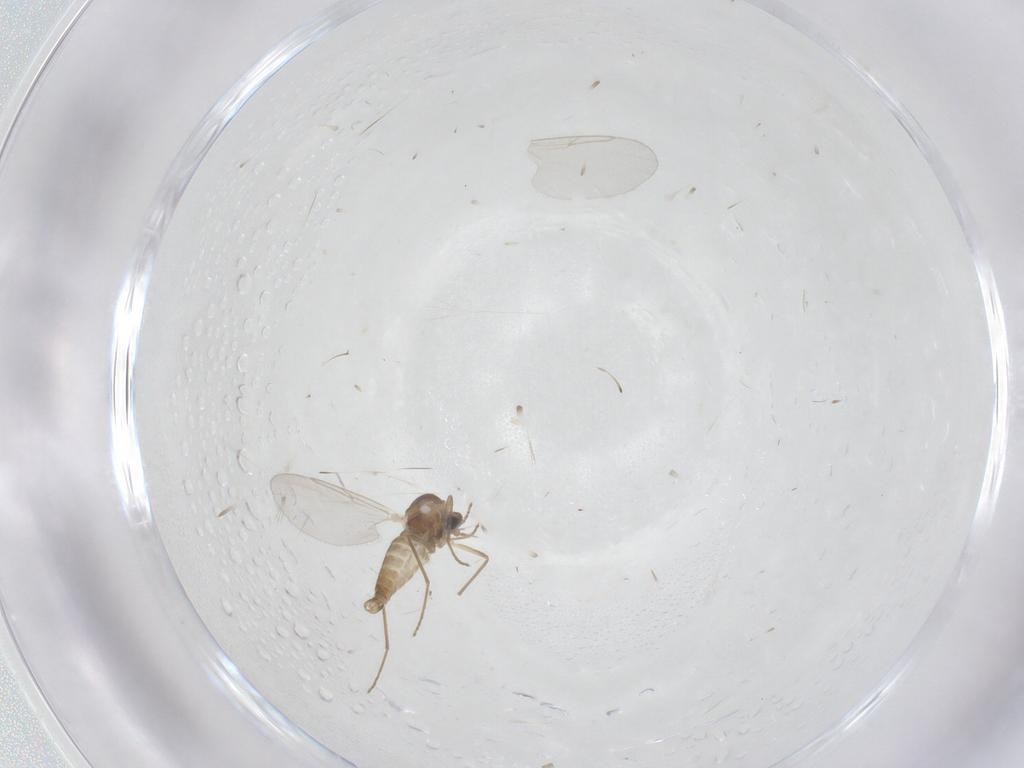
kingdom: Animalia
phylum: Arthropoda
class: Insecta
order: Diptera
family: Cecidomyiidae
